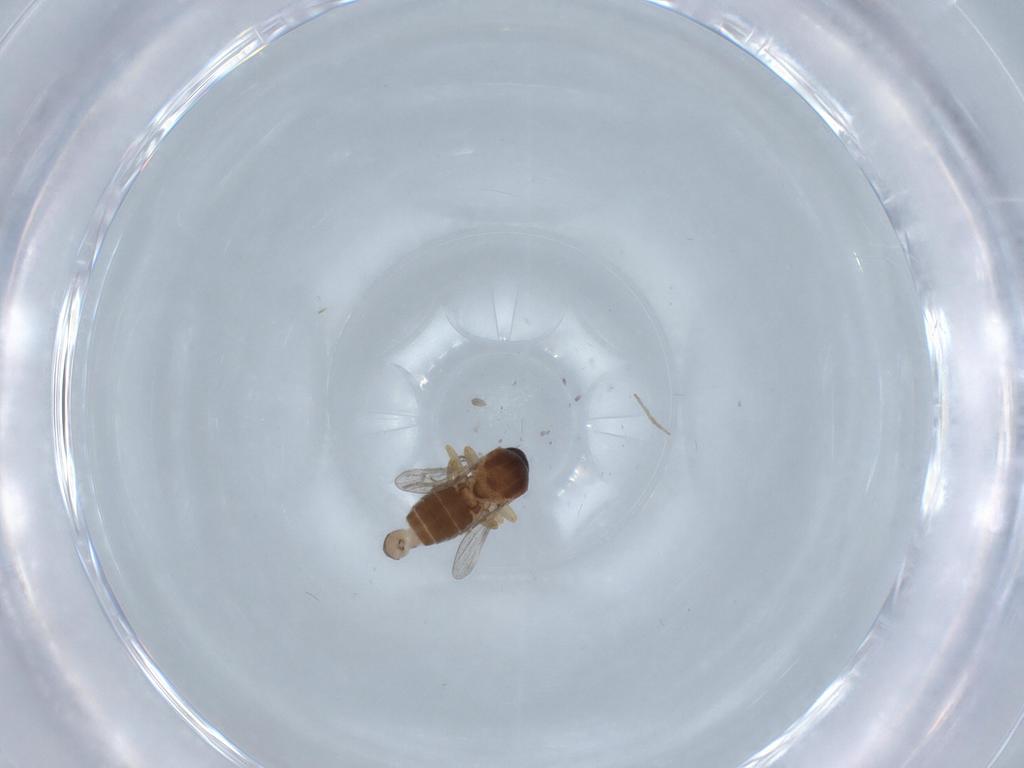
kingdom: Animalia
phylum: Arthropoda
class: Insecta
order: Diptera
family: Ceratopogonidae
